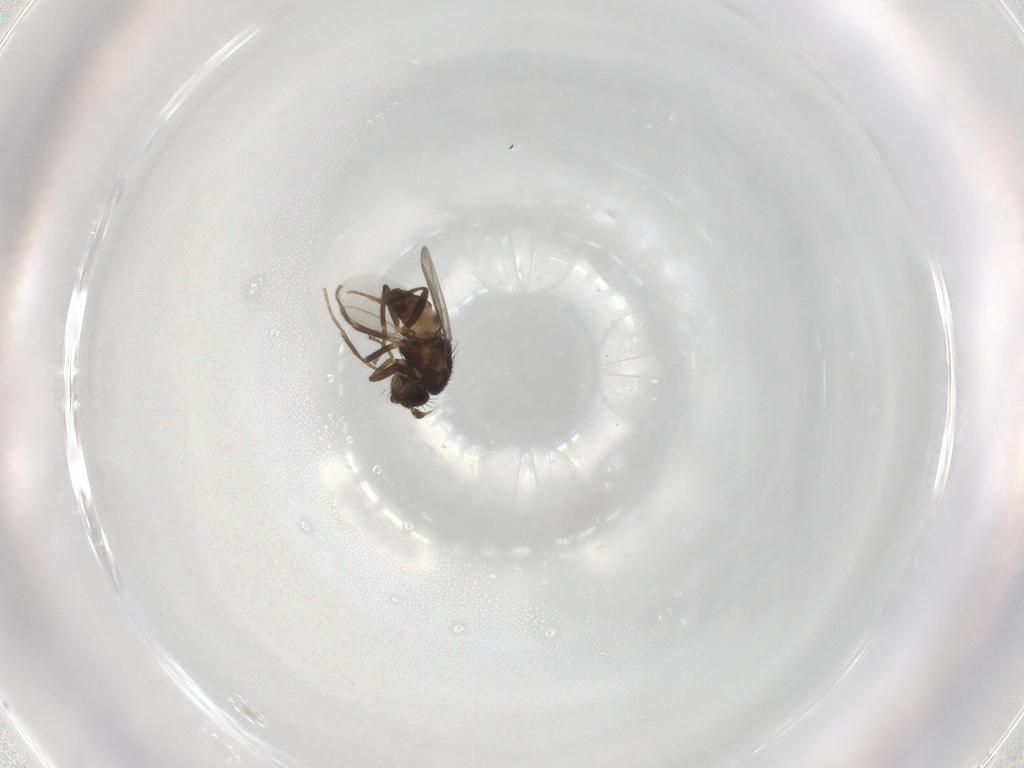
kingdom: Animalia
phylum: Arthropoda
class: Insecta
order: Diptera
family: Sphaeroceridae
